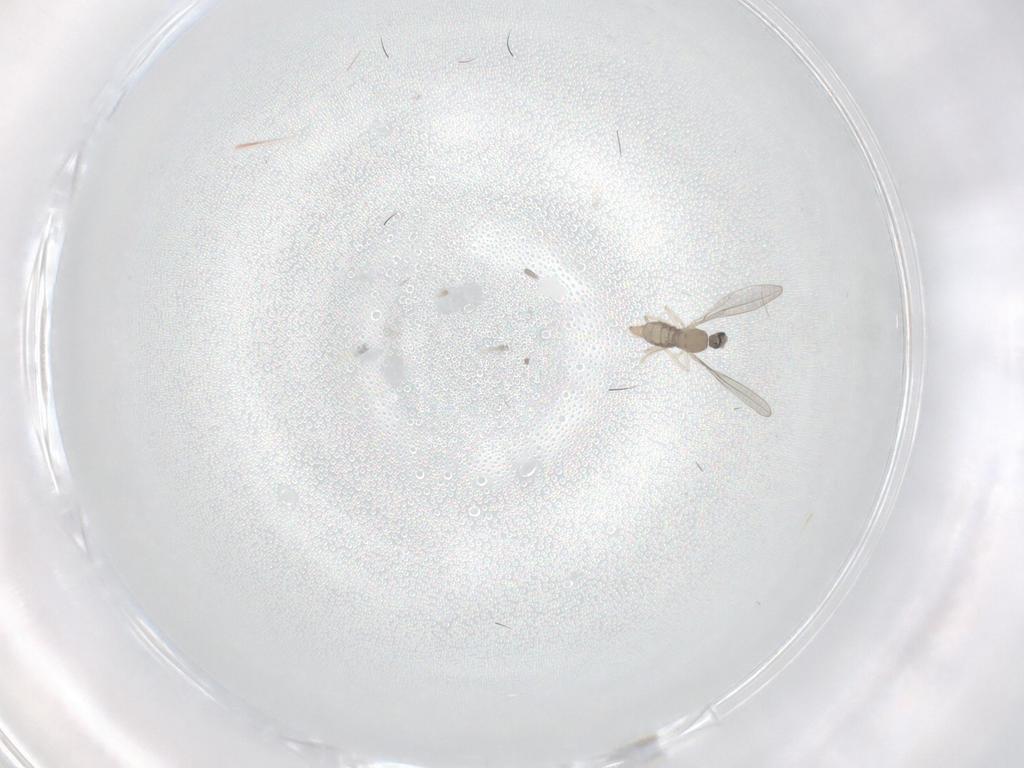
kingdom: Animalia
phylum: Arthropoda
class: Insecta
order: Diptera
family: Cecidomyiidae
